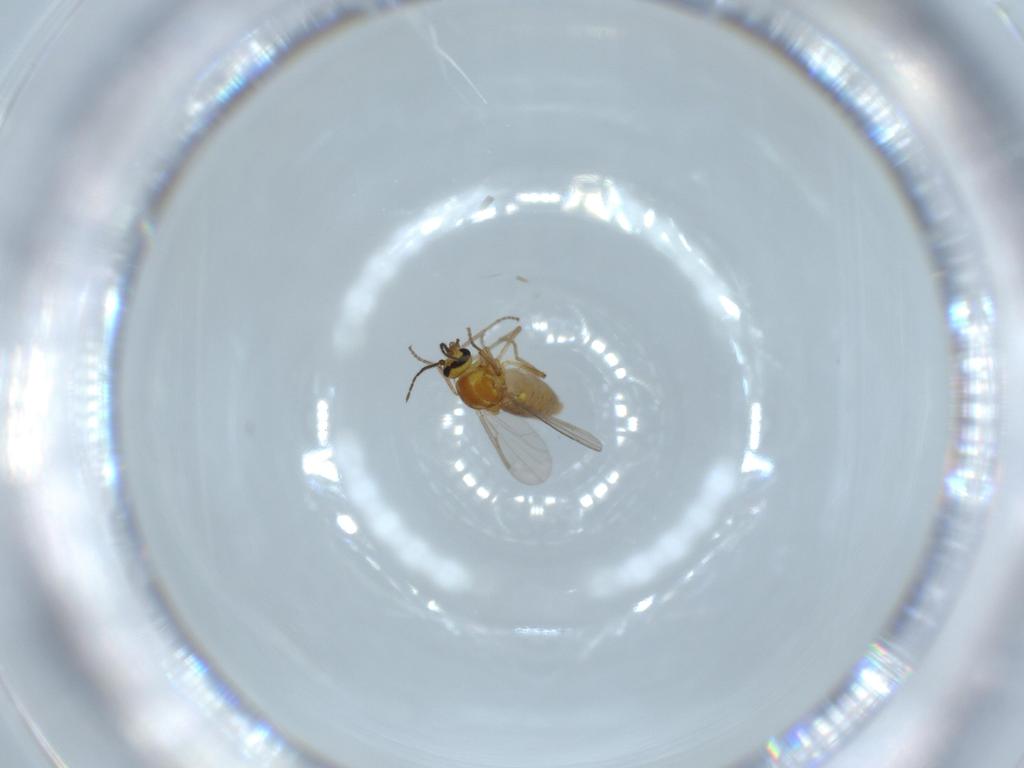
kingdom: Animalia
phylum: Arthropoda
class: Insecta
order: Diptera
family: Ceratopogonidae
